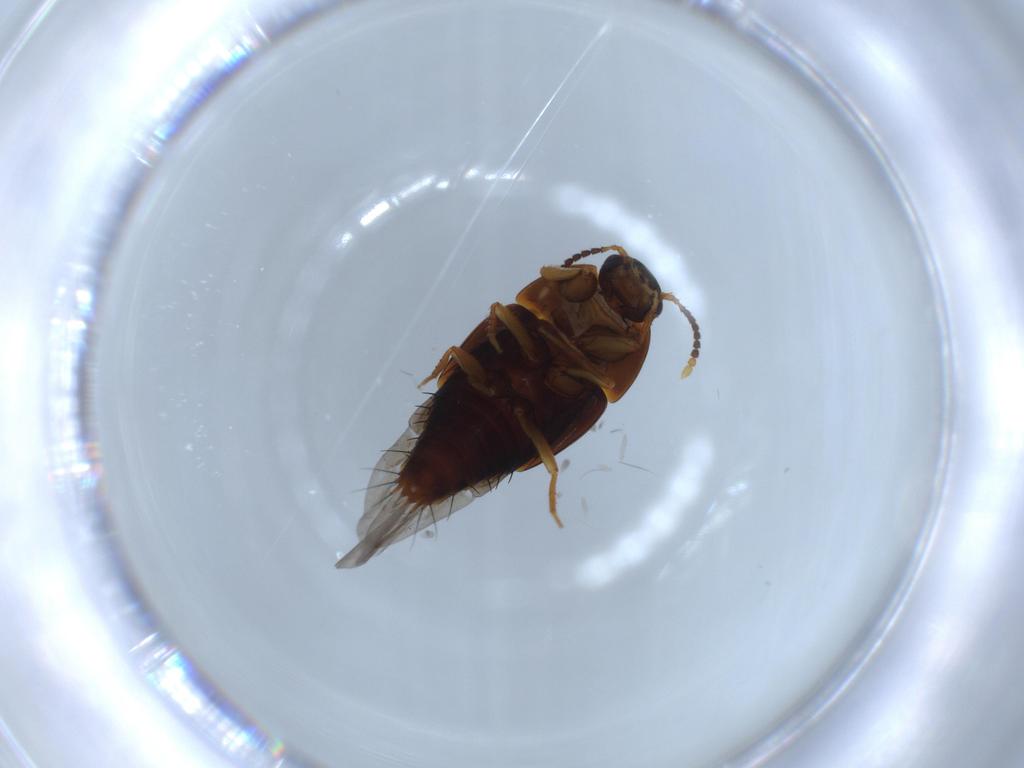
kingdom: Animalia
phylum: Arthropoda
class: Insecta
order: Coleoptera
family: Staphylinidae
